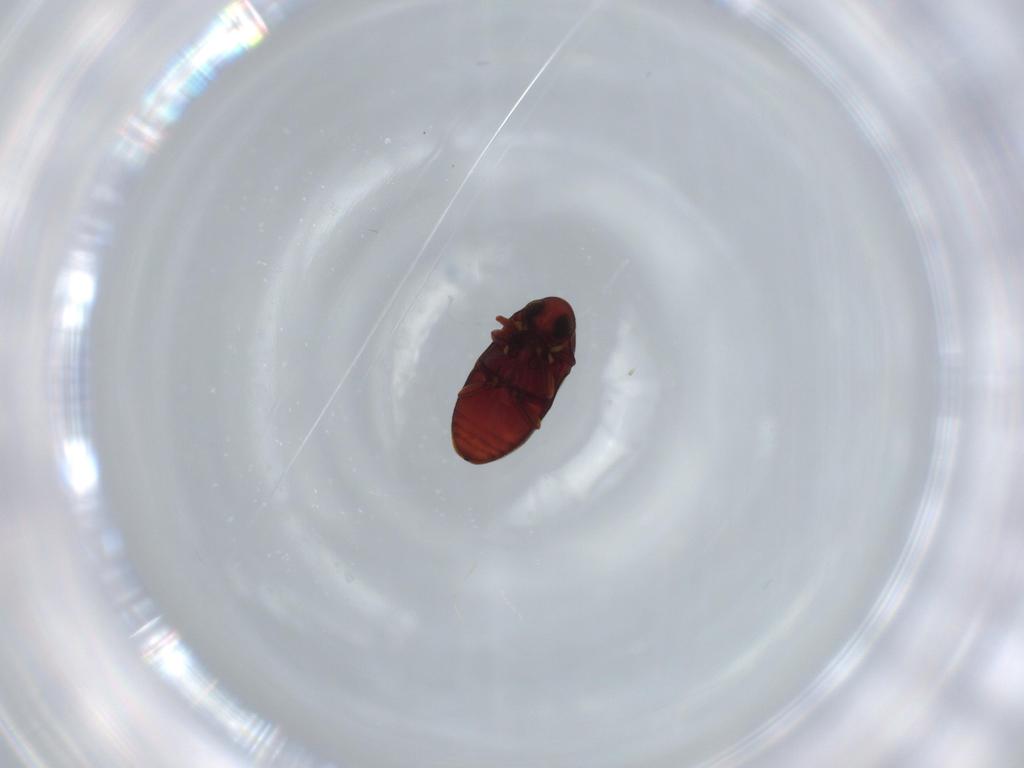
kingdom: Animalia
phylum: Arthropoda
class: Insecta
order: Coleoptera
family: Ptinidae
